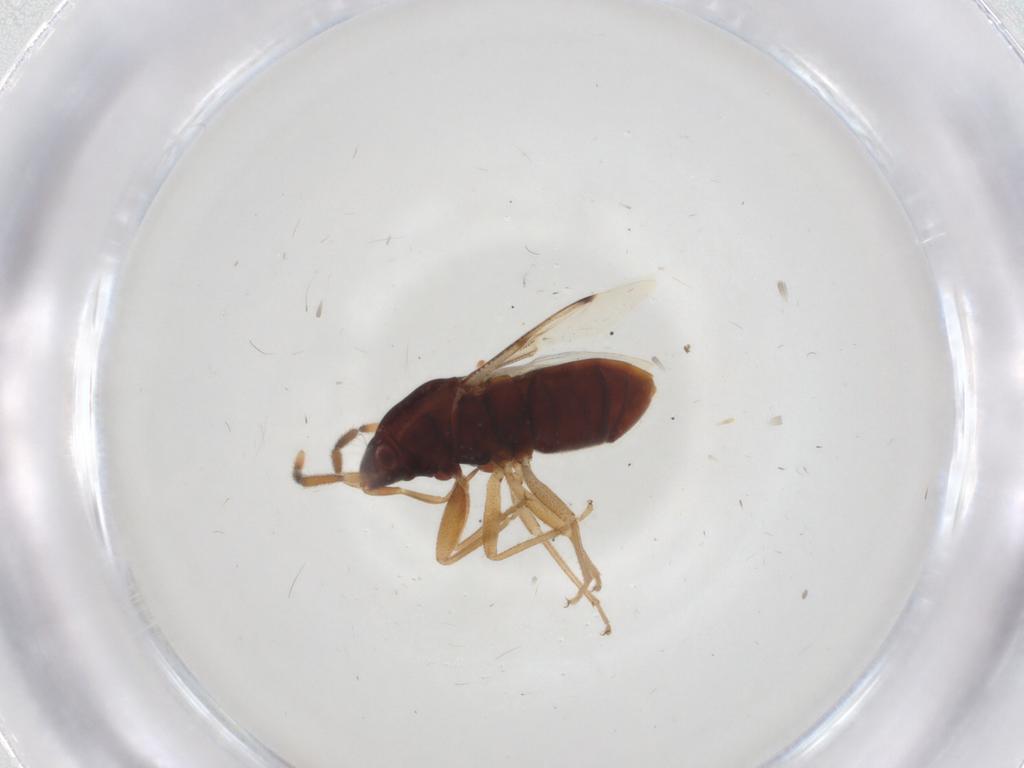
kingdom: Animalia
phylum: Arthropoda
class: Insecta
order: Hemiptera
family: Rhyparochromidae
